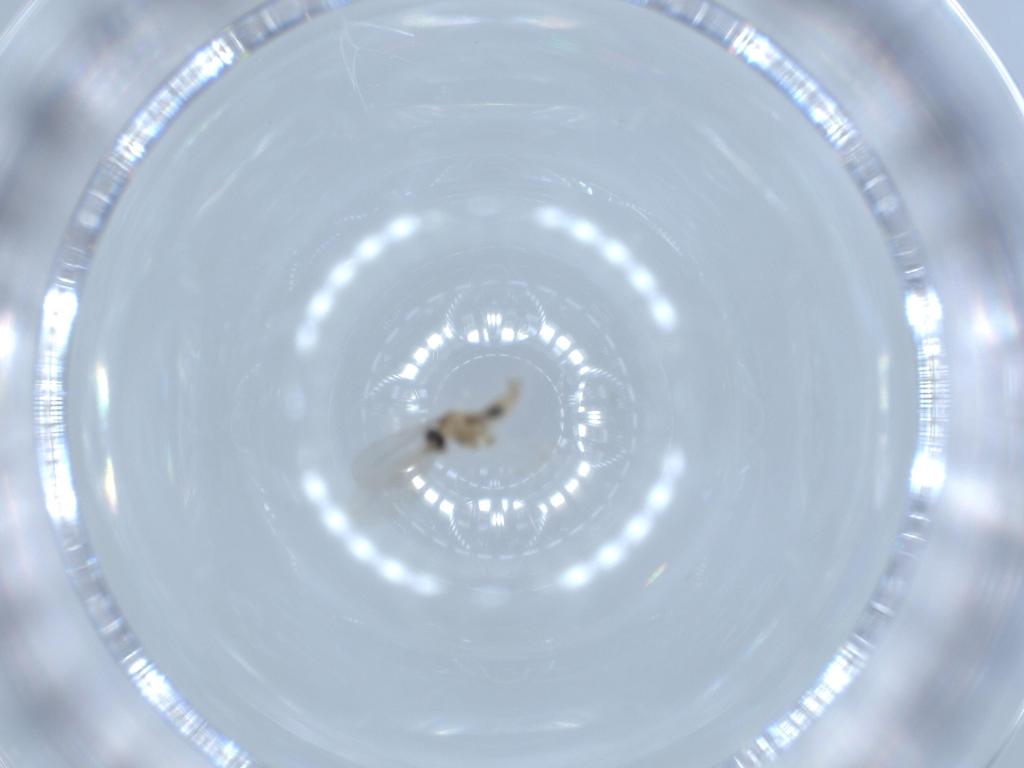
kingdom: Animalia
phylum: Arthropoda
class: Insecta
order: Diptera
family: Cecidomyiidae
